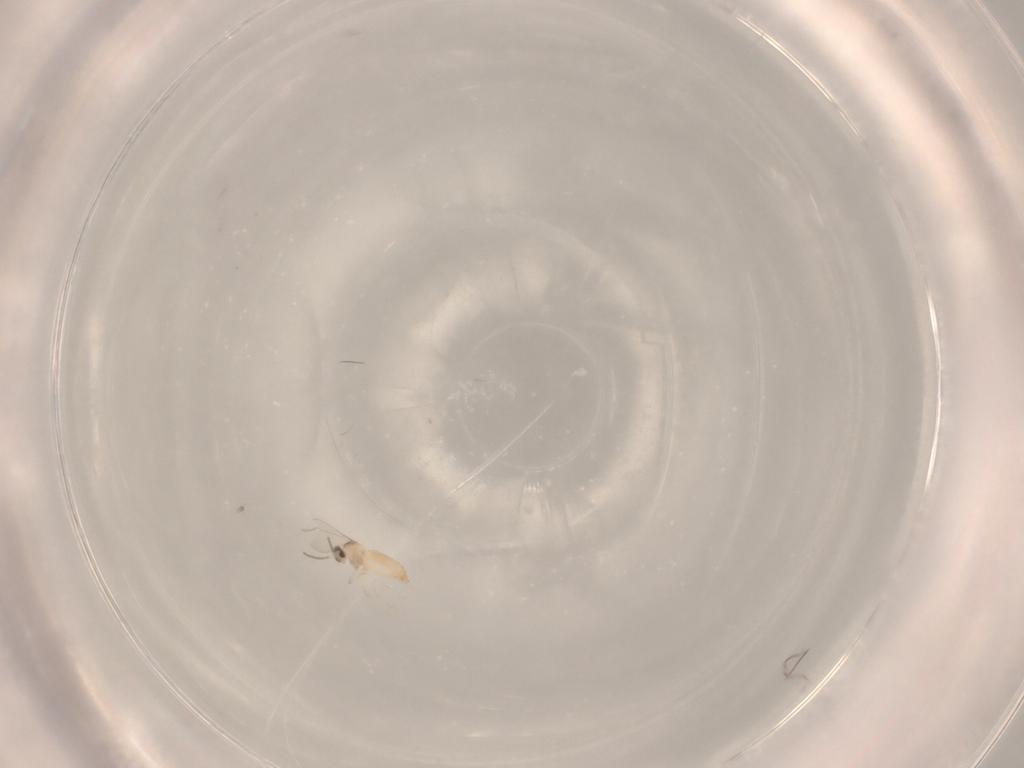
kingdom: Animalia
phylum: Arthropoda
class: Insecta
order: Diptera
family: Cecidomyiidae
